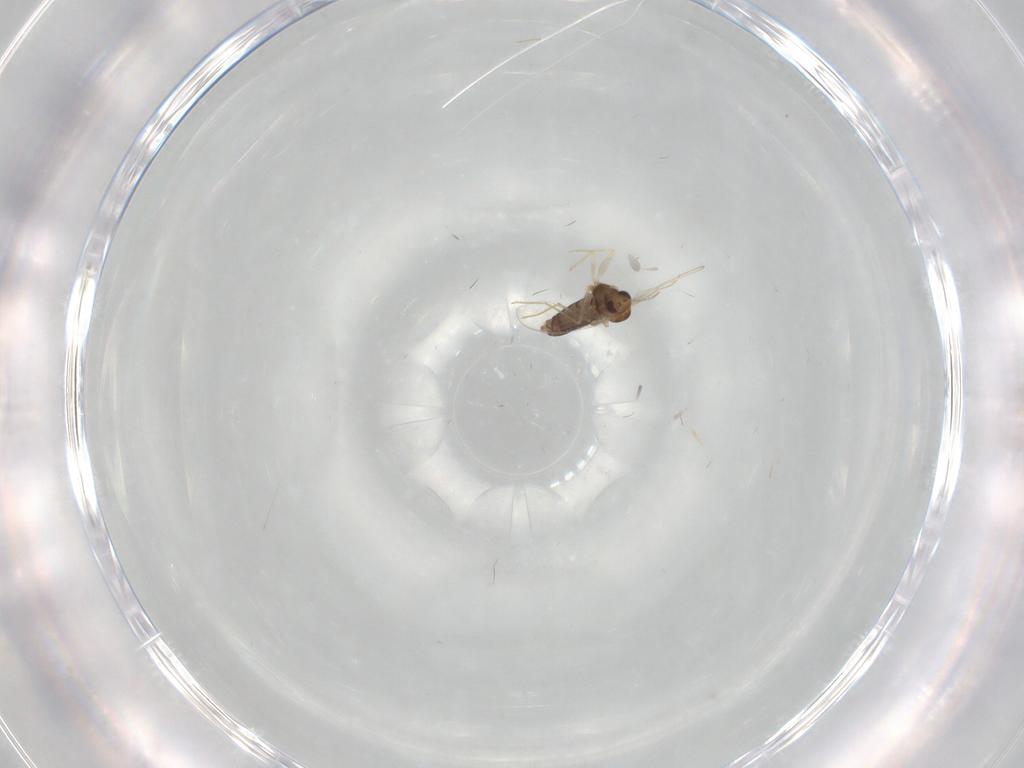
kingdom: Animalia
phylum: Arthropoda
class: Insecta
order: Diptera
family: Chironomidae
